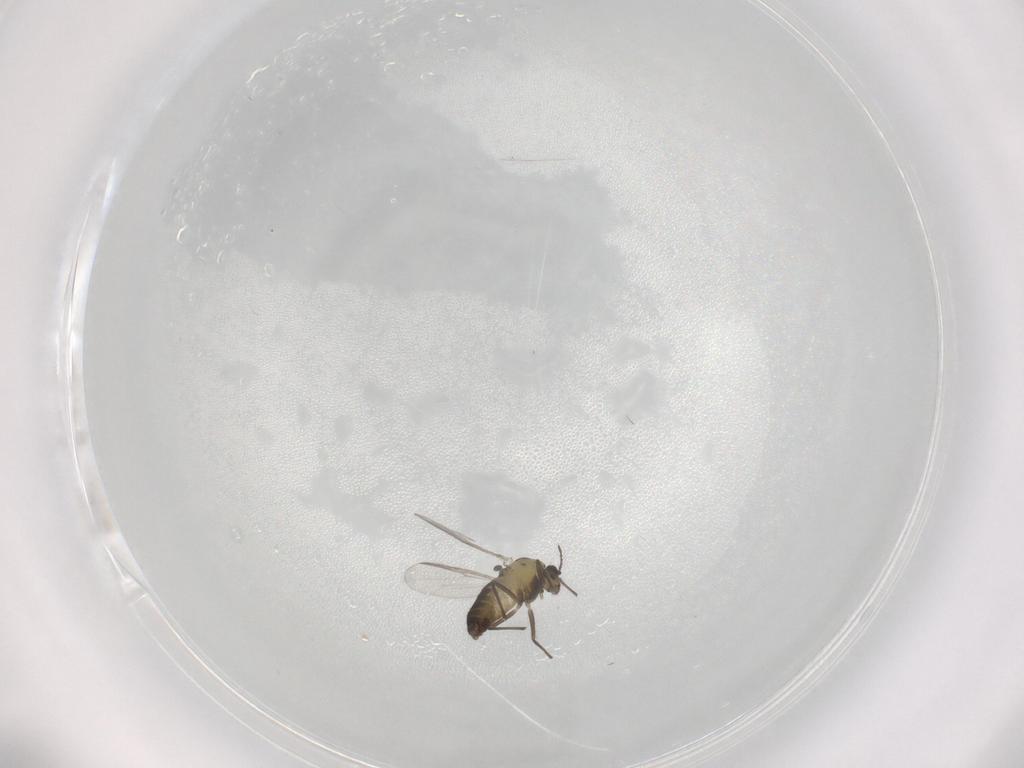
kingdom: Animalia
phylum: Arthropoda
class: Insecta
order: Diptera
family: Chironomidae
